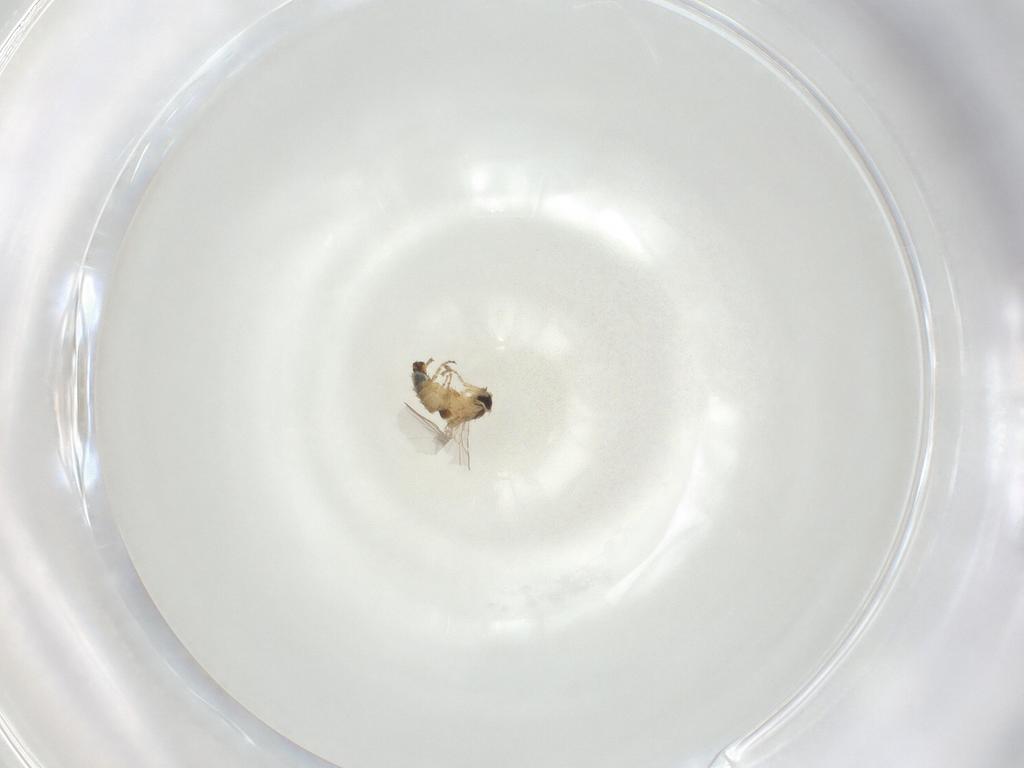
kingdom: Animalia
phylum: Arthropoda
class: Insecta
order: Diptera
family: Agromyzidae
